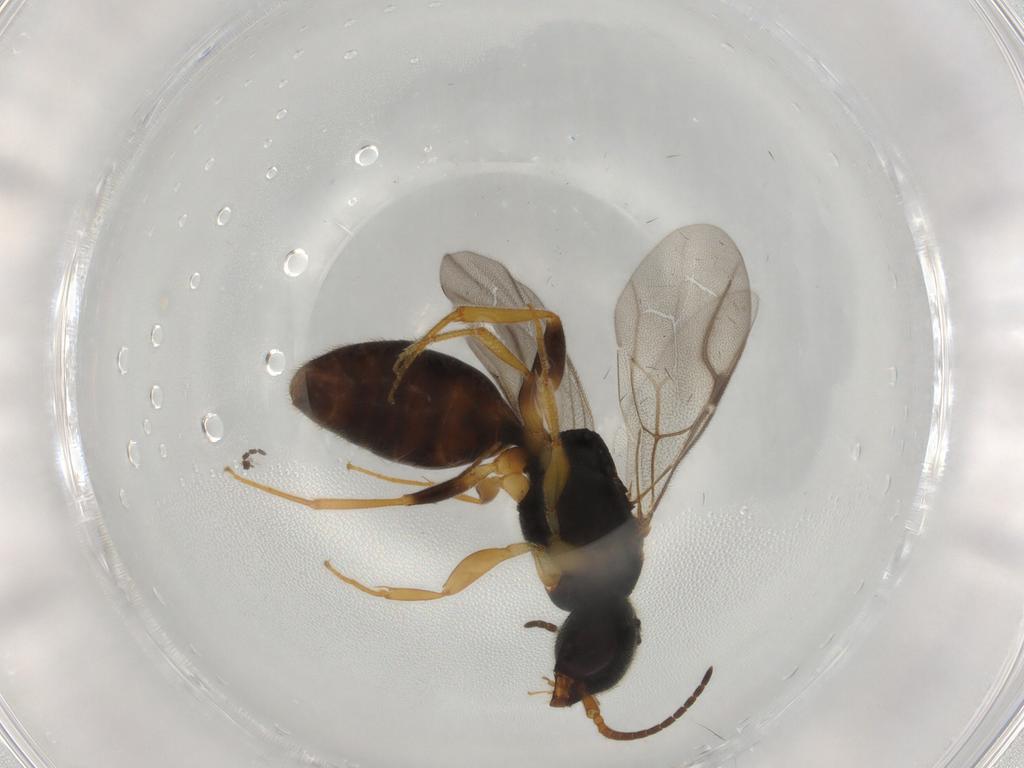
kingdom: Animalia
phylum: Arthropoda
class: Insecta
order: Hymenoptera
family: Bethylidae
